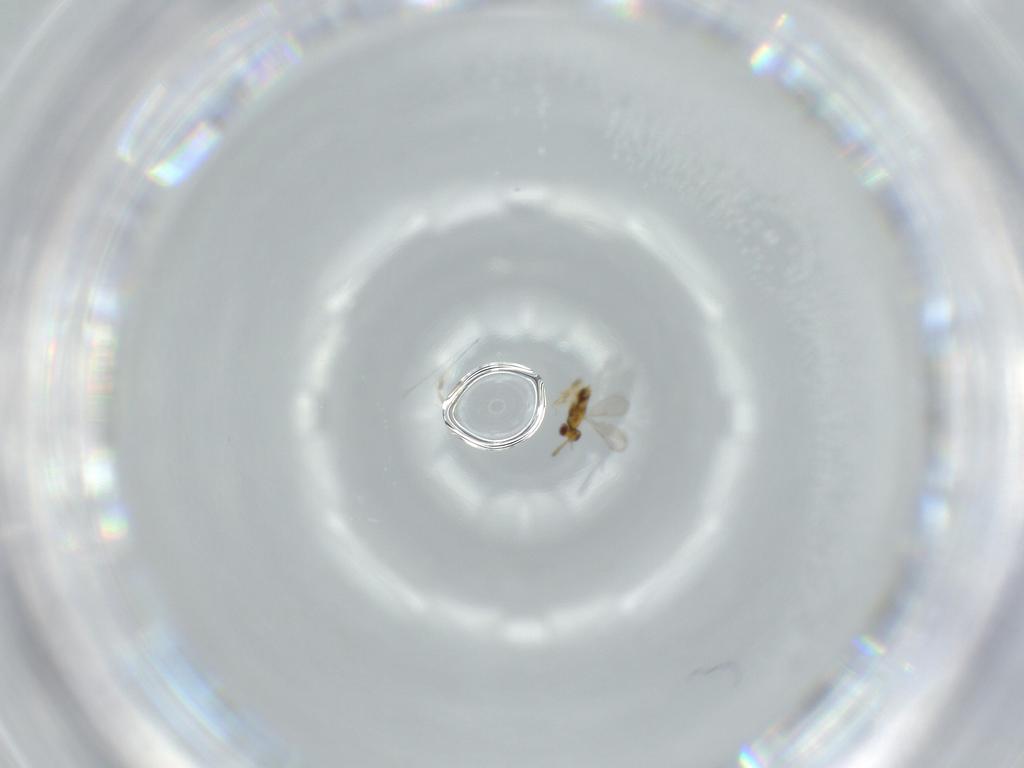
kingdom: Animalia
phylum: Arthropoda
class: Insecta
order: Hymenoptera
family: Aphelinidae
